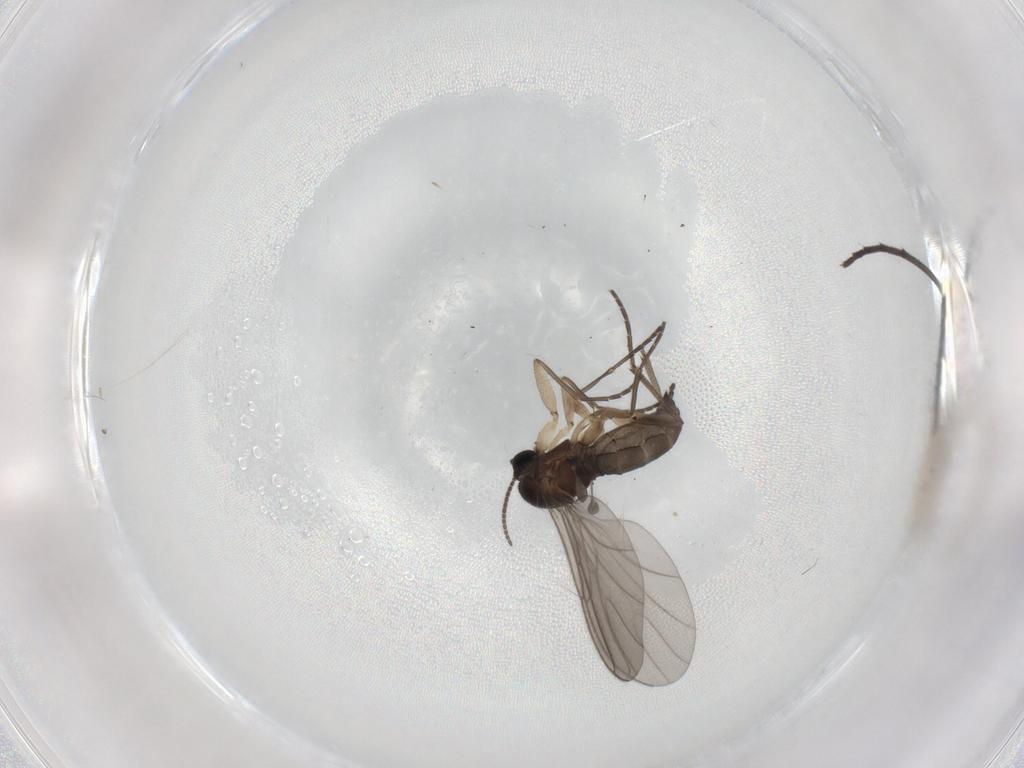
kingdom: Animalia
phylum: Arthropoda
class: Insecta
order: Diptera
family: Sciaridae
